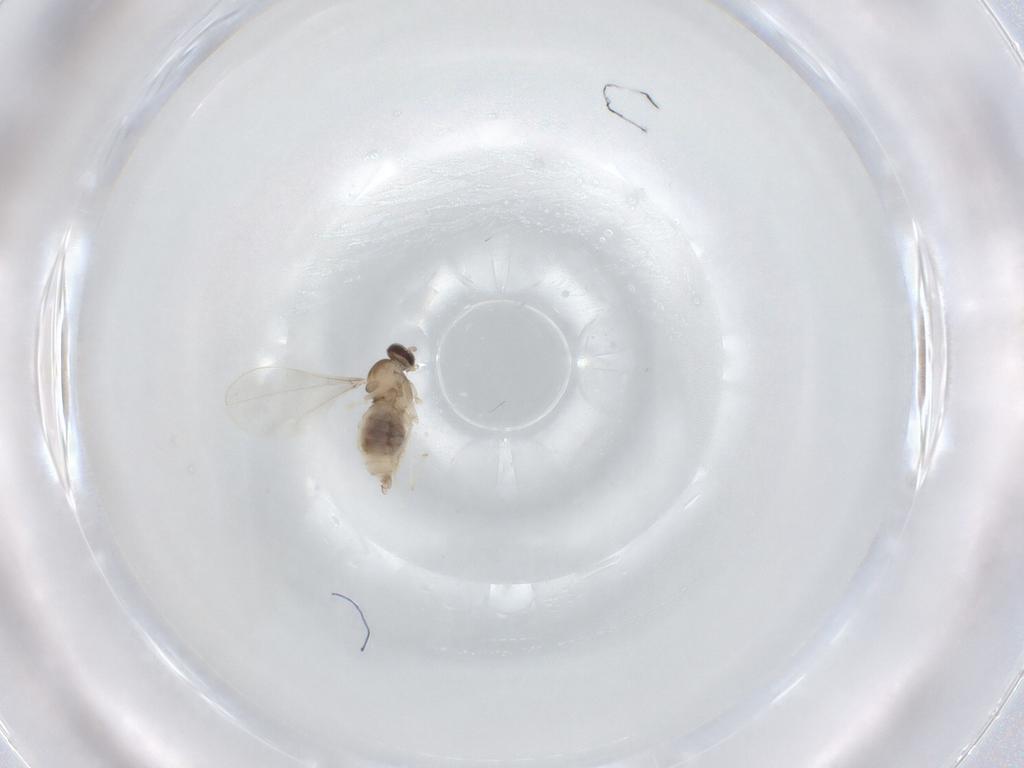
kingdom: Animalia
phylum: Arthropoda
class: Insecta
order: Diptera
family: Cecidomyiidae
